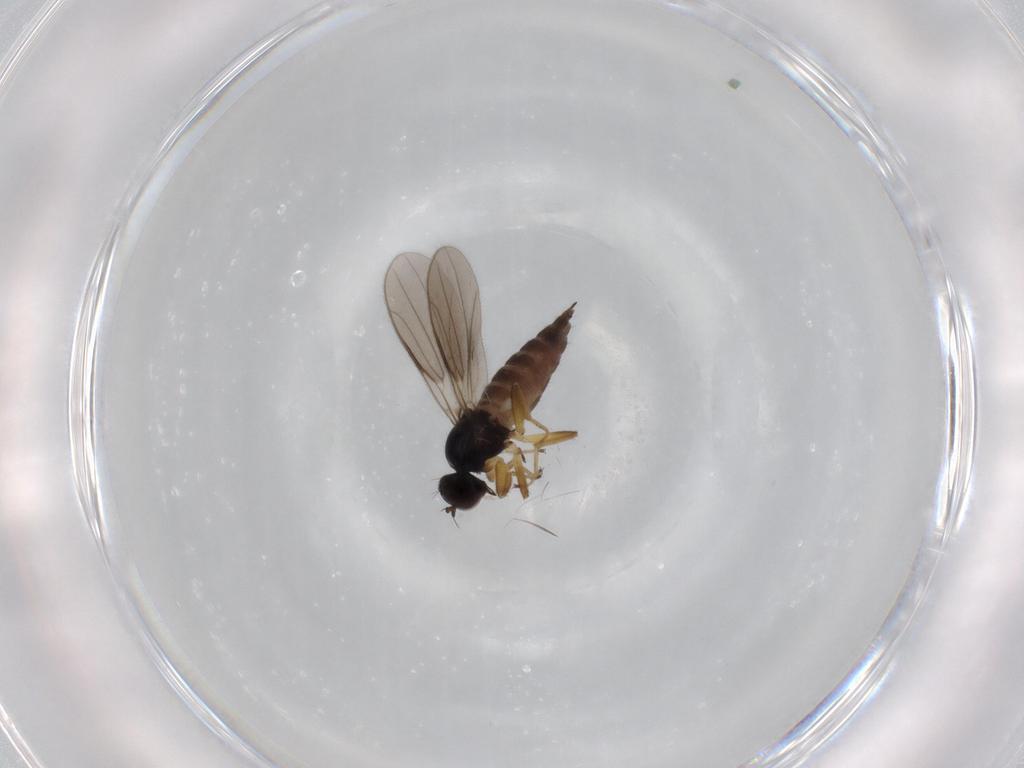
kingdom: Animalia
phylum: Arthropoda
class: Insecta
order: Diptera
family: Hybotidae
